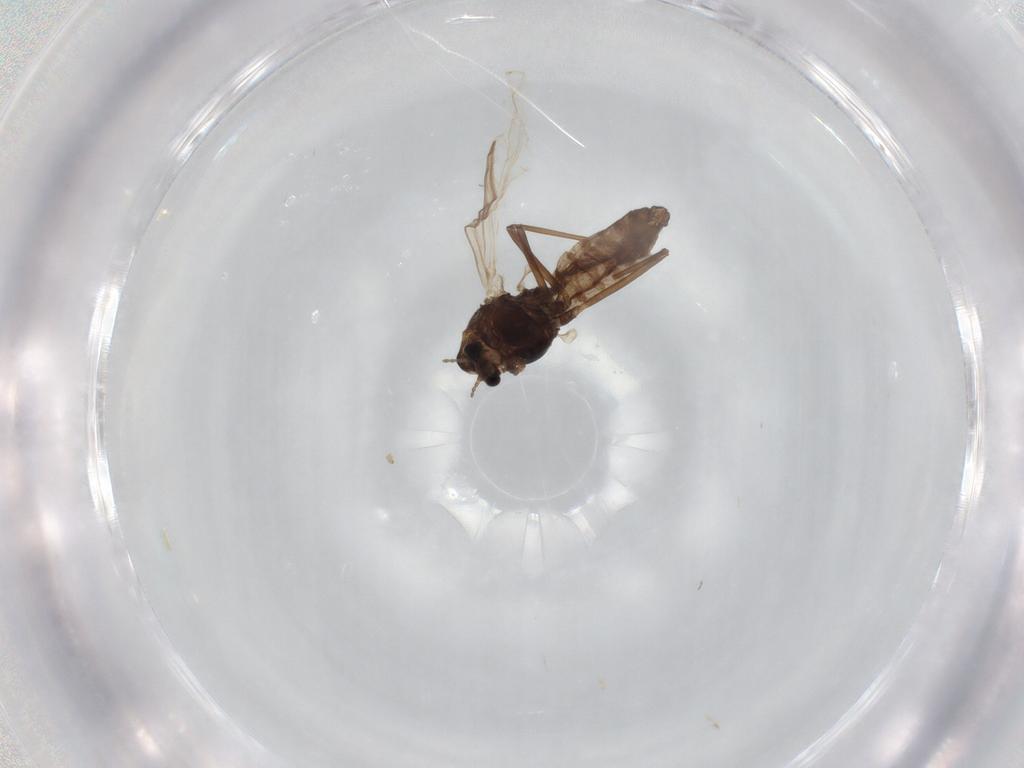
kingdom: Animalia
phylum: Arthropoda
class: Insecta
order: Diptera
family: Chironomidae
